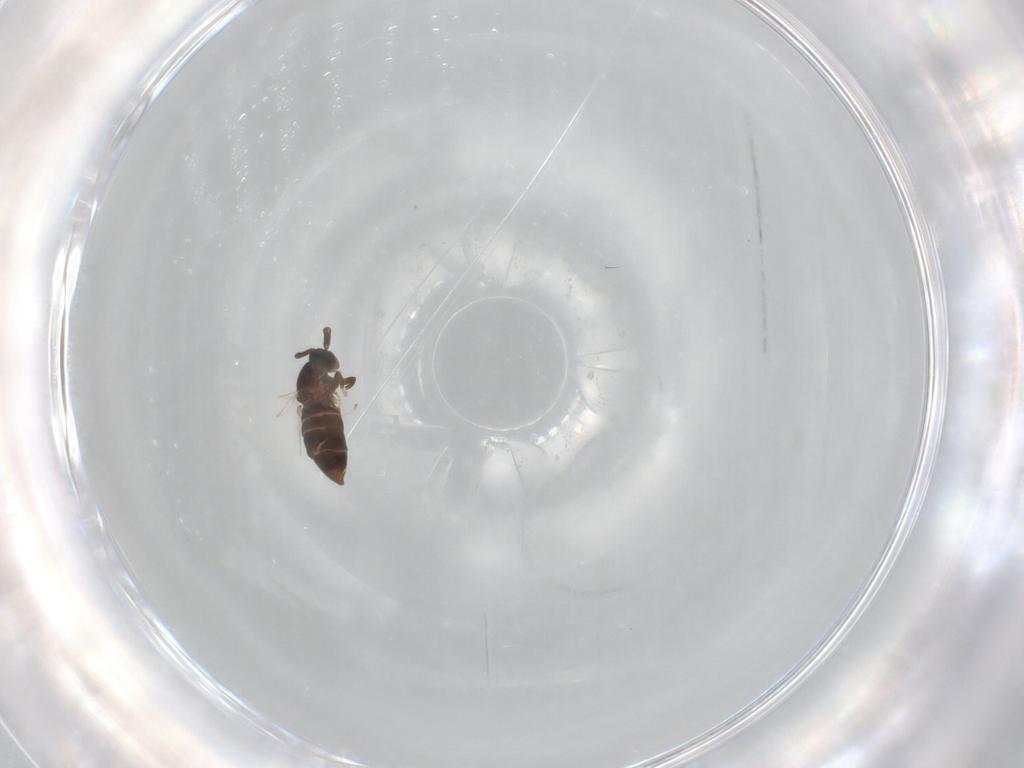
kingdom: Animalia
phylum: Arthropoda
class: Insecta
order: Diptera
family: Scatopsidae
